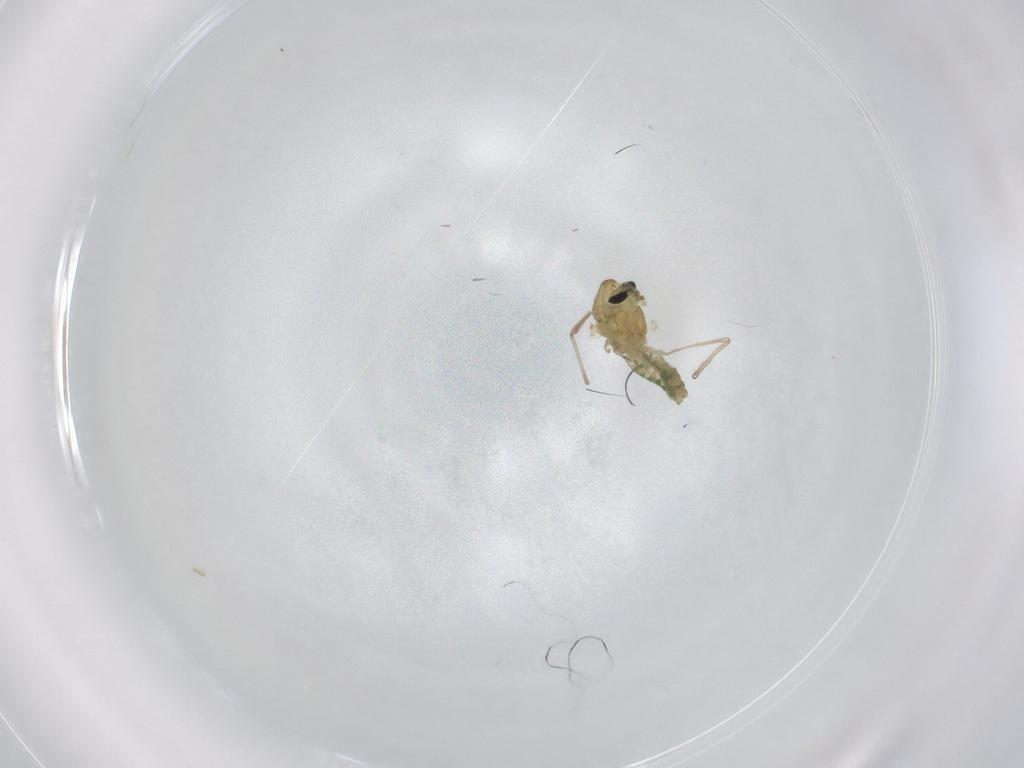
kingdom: Animalia
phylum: Arthropoda
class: Insecta
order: Diptera
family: Chironomidae
